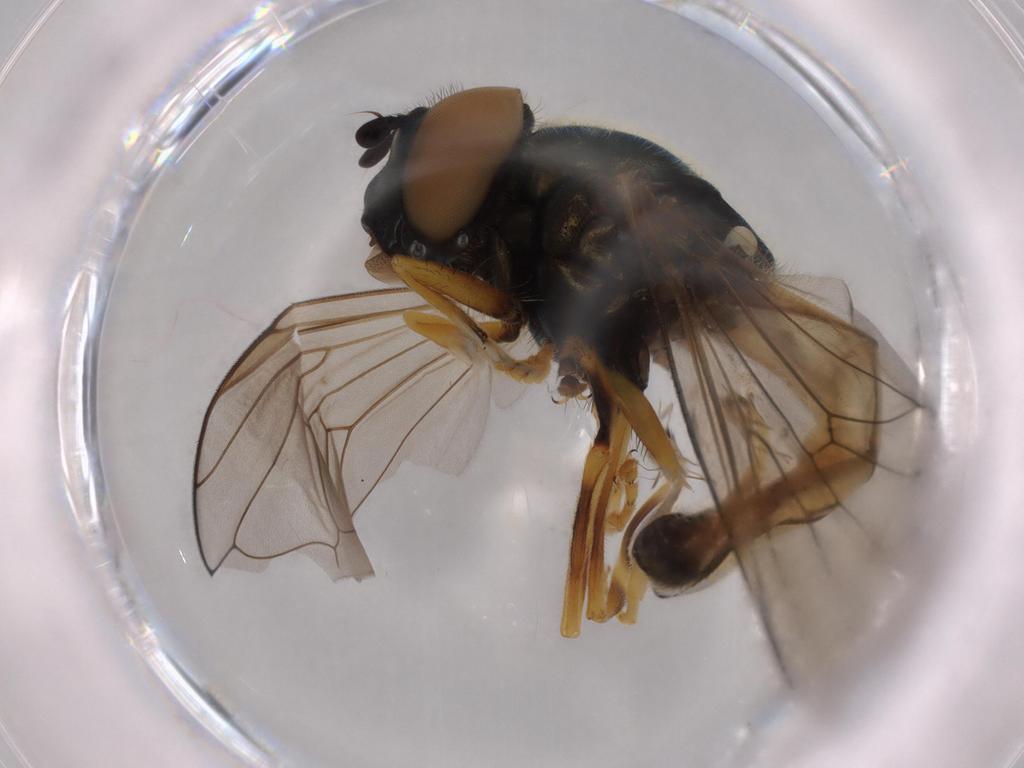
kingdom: Animalia
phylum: Arthropoda
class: Insecta
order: Diptera
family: Syrphidae
